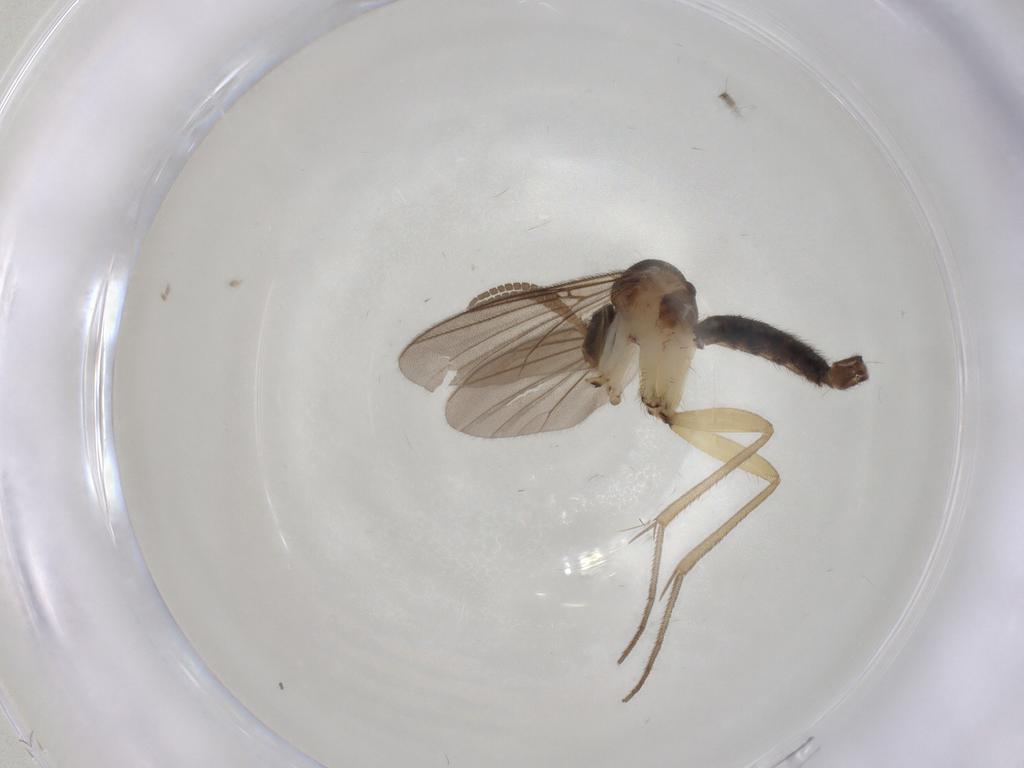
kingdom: Animalia
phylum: Arthropoda
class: Insecta
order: Diptera
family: Mycetophilidae
